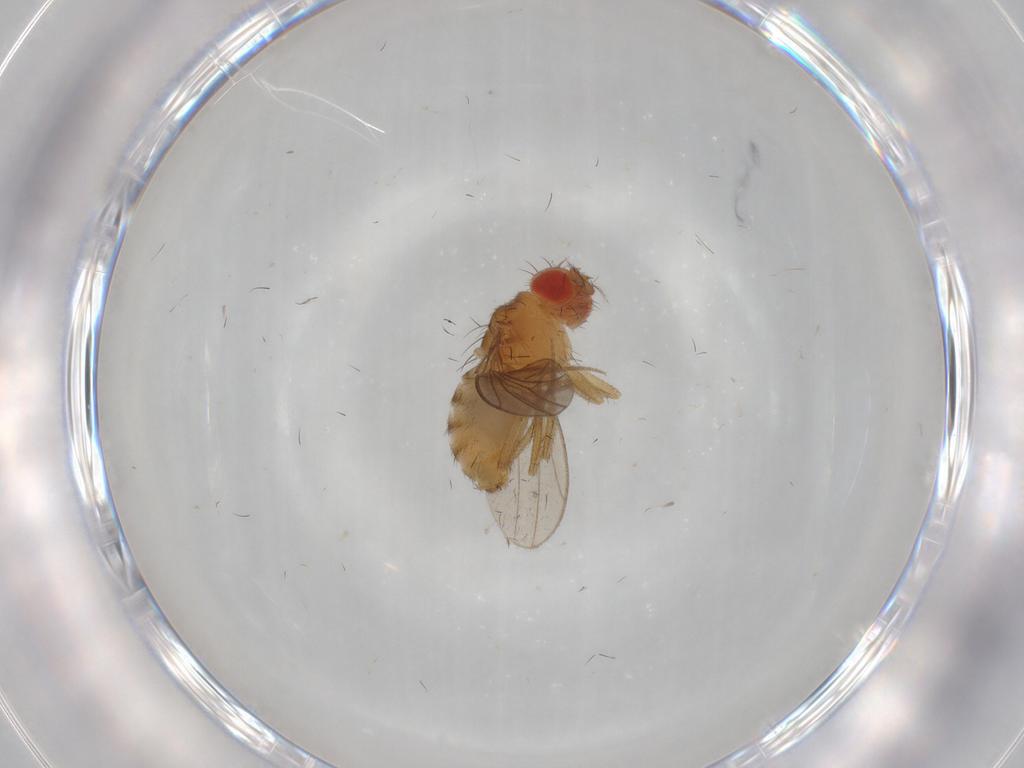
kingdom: Animalia
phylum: Arthropoda
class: Insecta
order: Diptera
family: Drosophilidae
